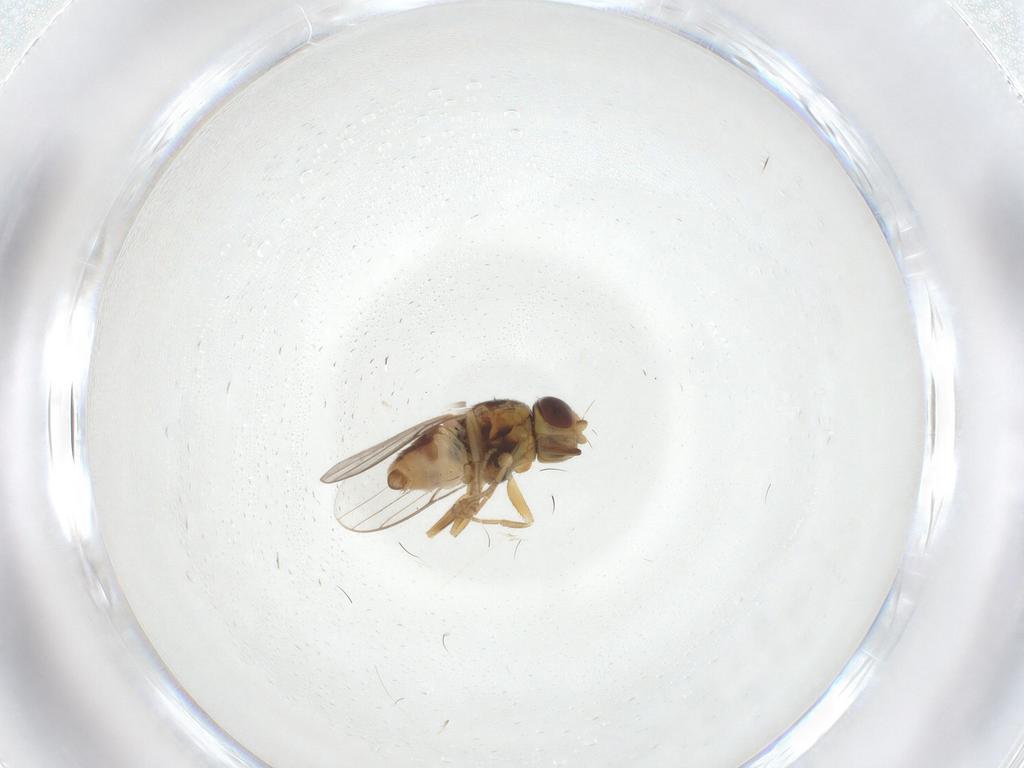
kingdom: Animalia
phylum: Arthropoda
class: Insecta
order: Diptera
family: Chloropidae
